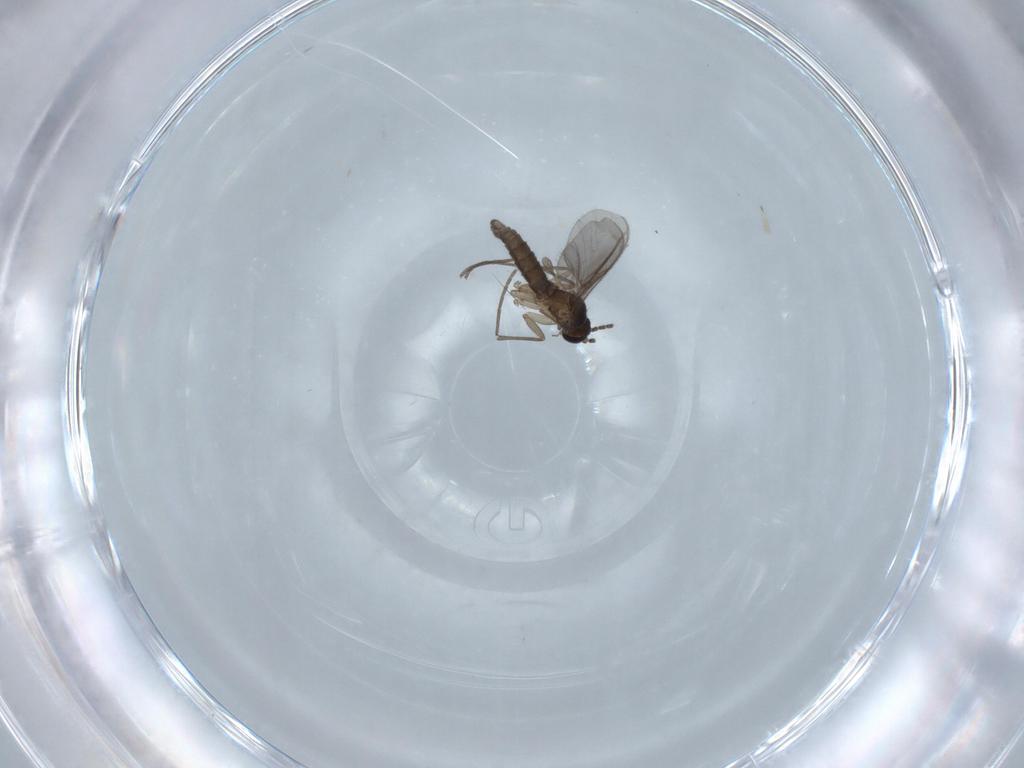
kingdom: Animalia
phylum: Arthropoda
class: Insecta
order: Diptera
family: Sciaridae
